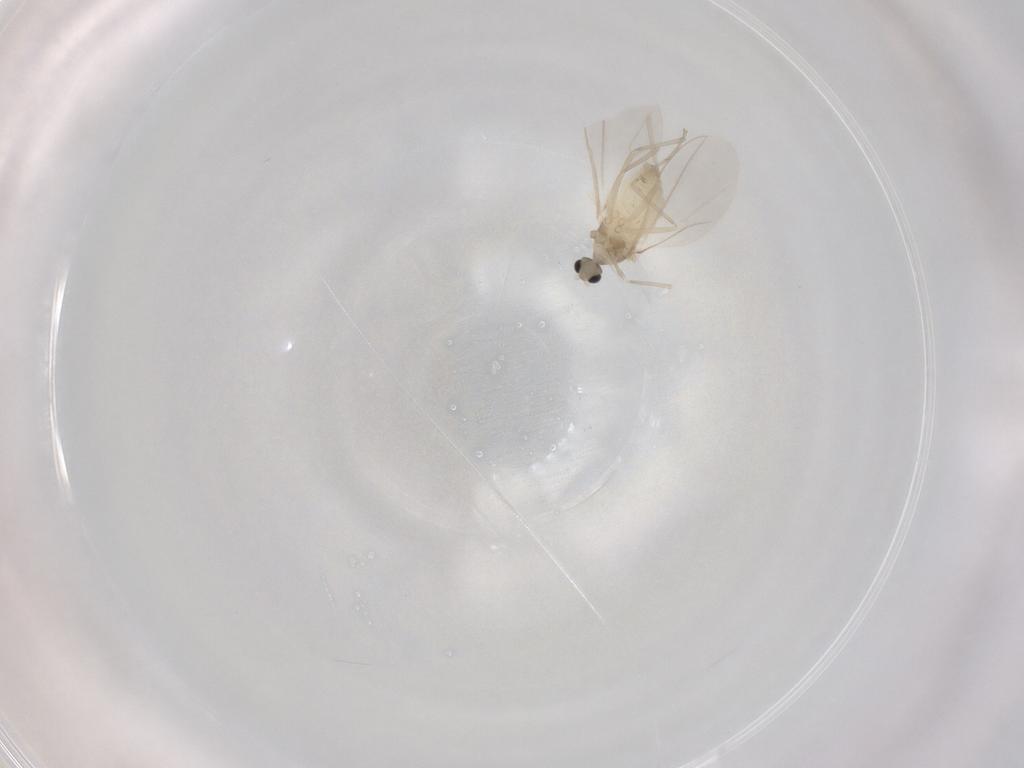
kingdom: Animalia
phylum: Arthropoda
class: Insecta
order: Diptera
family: Cecidomyiidae
